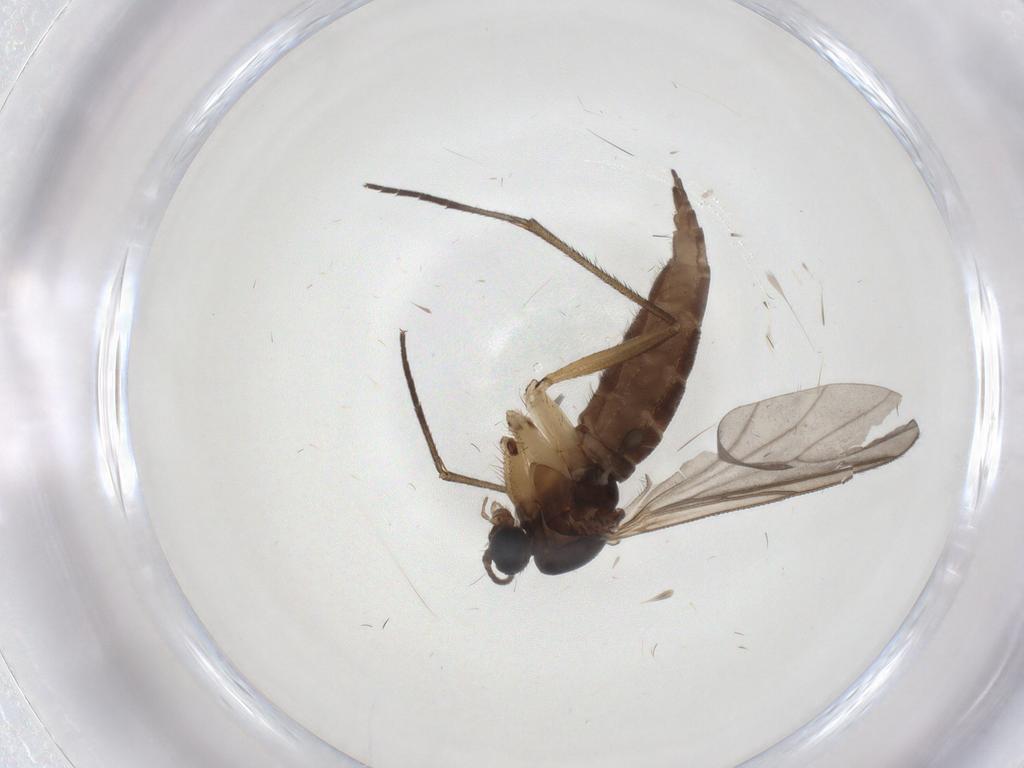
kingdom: Animalia
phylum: Arthropoda
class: Insecta
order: Diptera
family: Sciaridae
